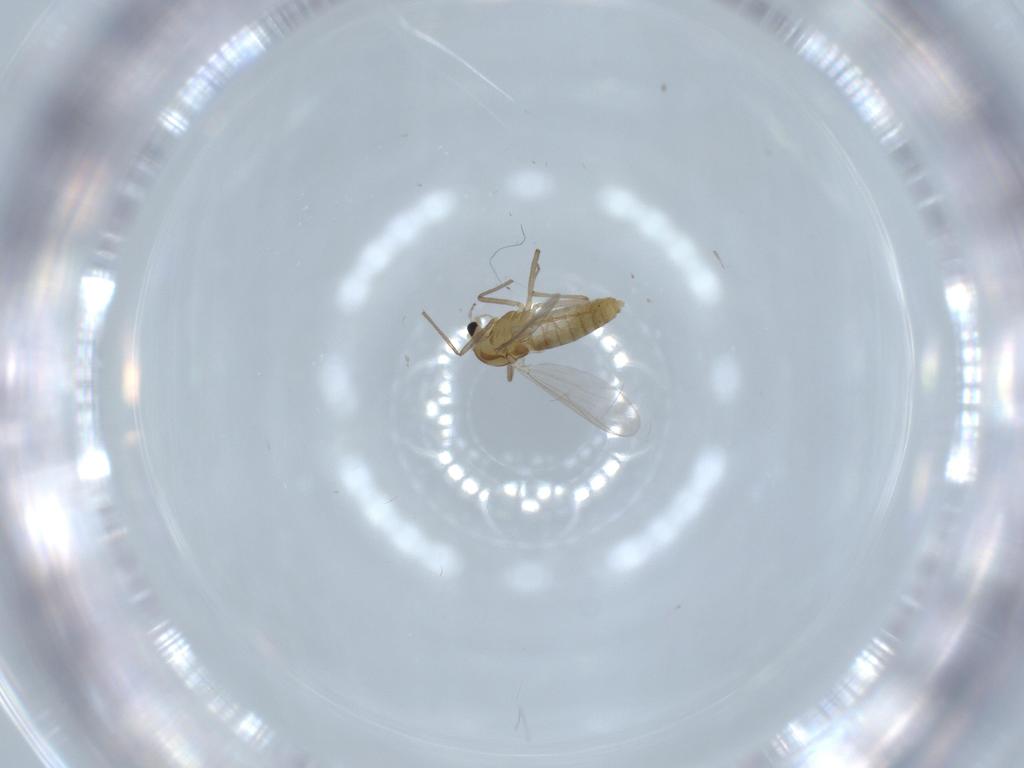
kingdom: Animalia
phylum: Arthropoda
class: Insecta
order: Diptera
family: Chironomidae
